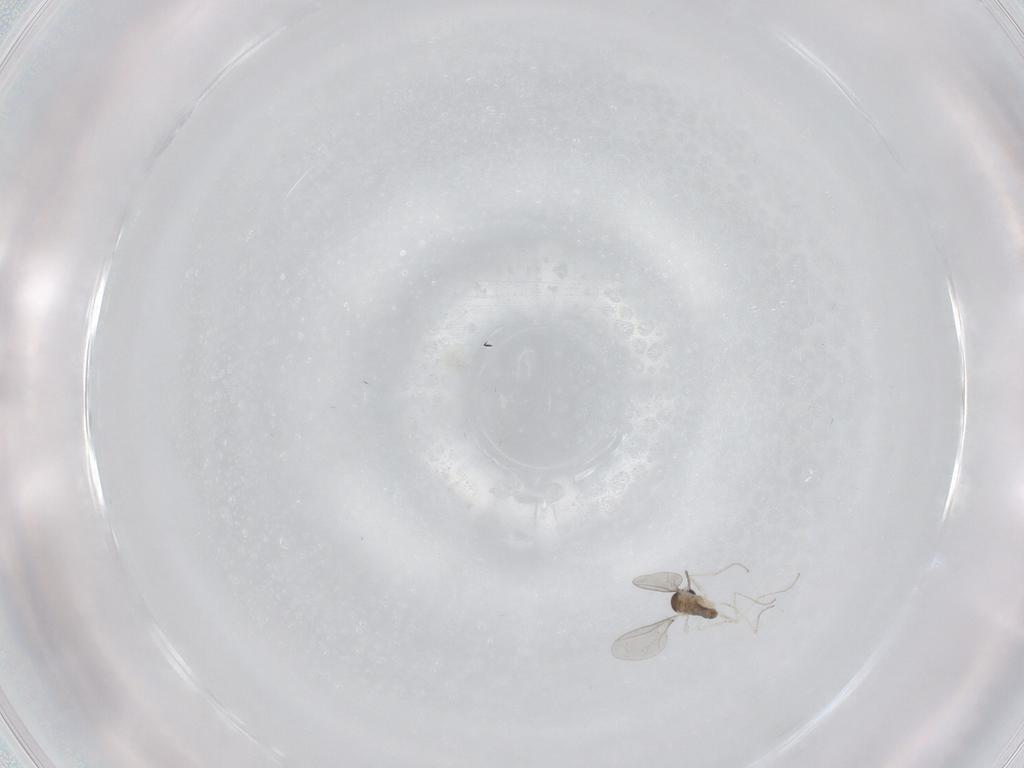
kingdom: Animalia
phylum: Arthropoda
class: Insecta
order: Diptera
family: Cecidomyiidae
